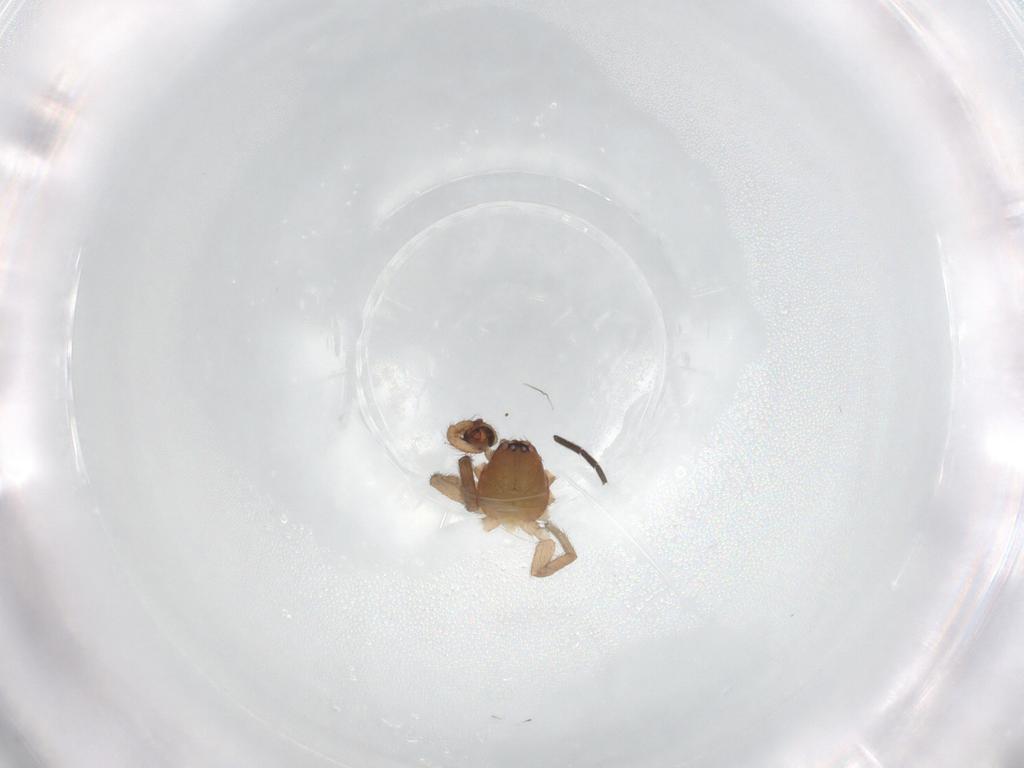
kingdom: Animalia
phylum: Arthropoda
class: Arachnida
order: Araneae
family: Anyphaenidae
